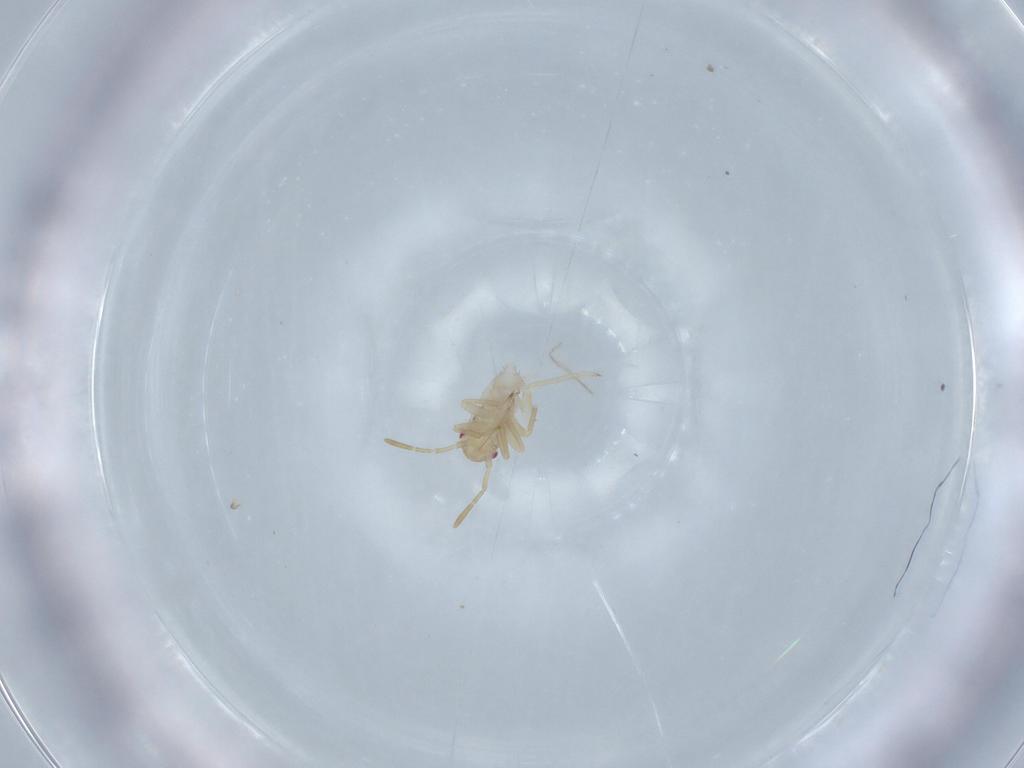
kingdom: Animalia
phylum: Arthropoda
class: Insecta
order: Hemiptera
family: Miridae
